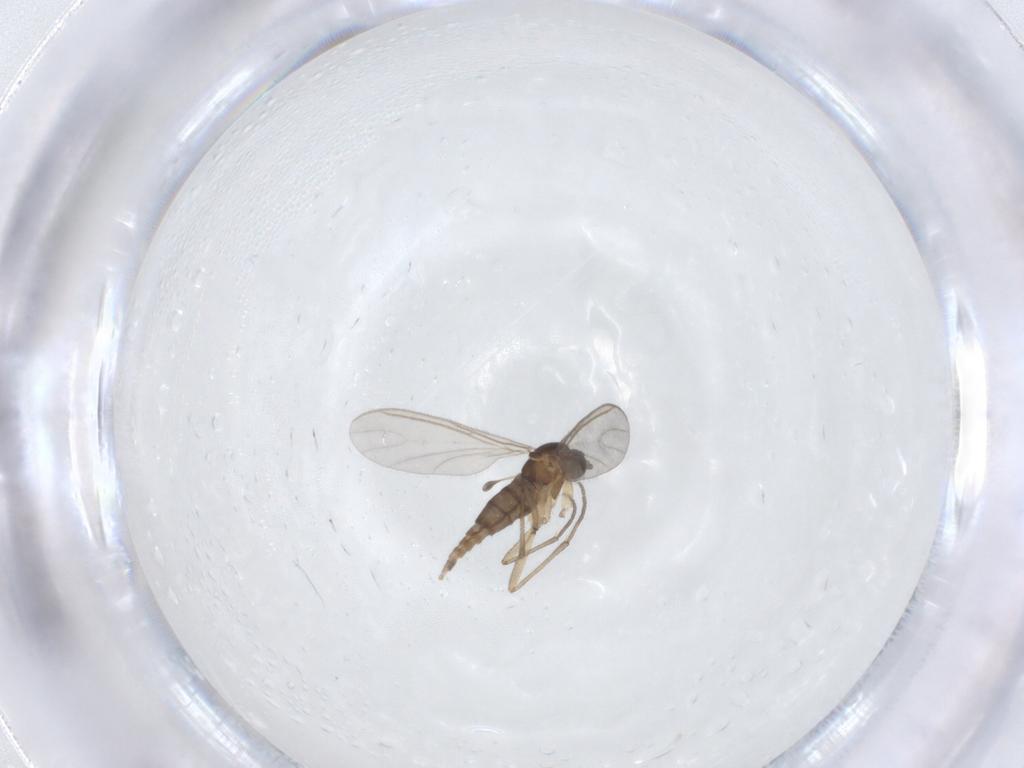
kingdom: Animalia
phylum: Arthropoda
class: Insecta
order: Diptera
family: Sciaridae
